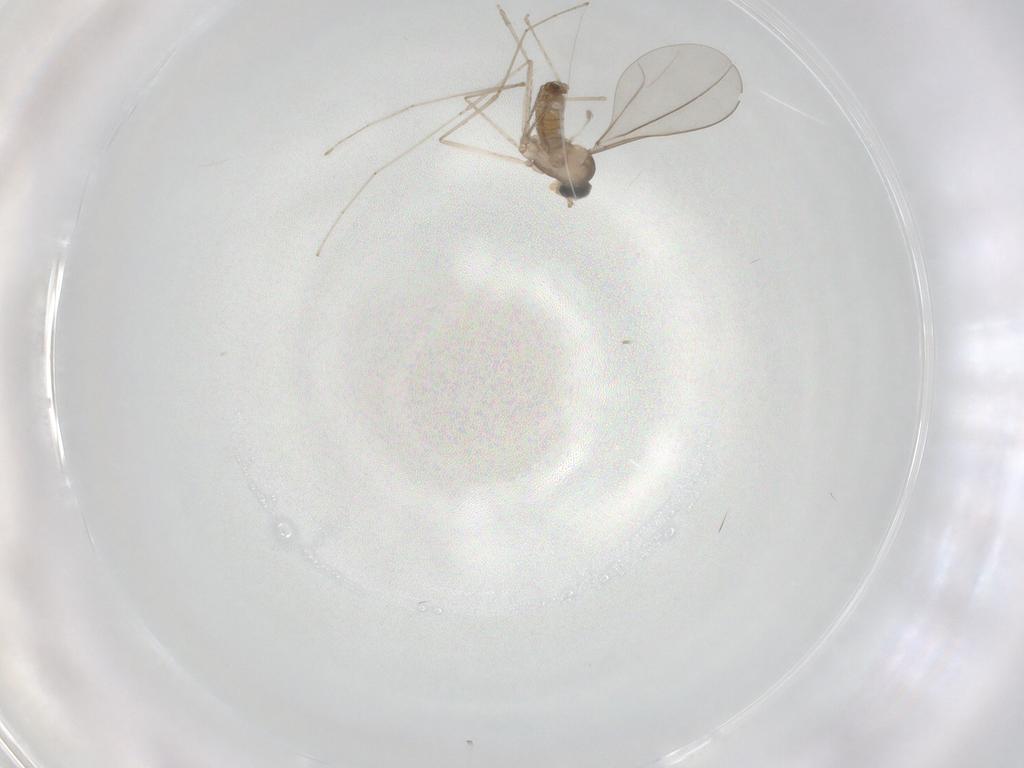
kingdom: Animalia
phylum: Arthropoda
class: Insecta
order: Diptera
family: Cecidomyiidae
